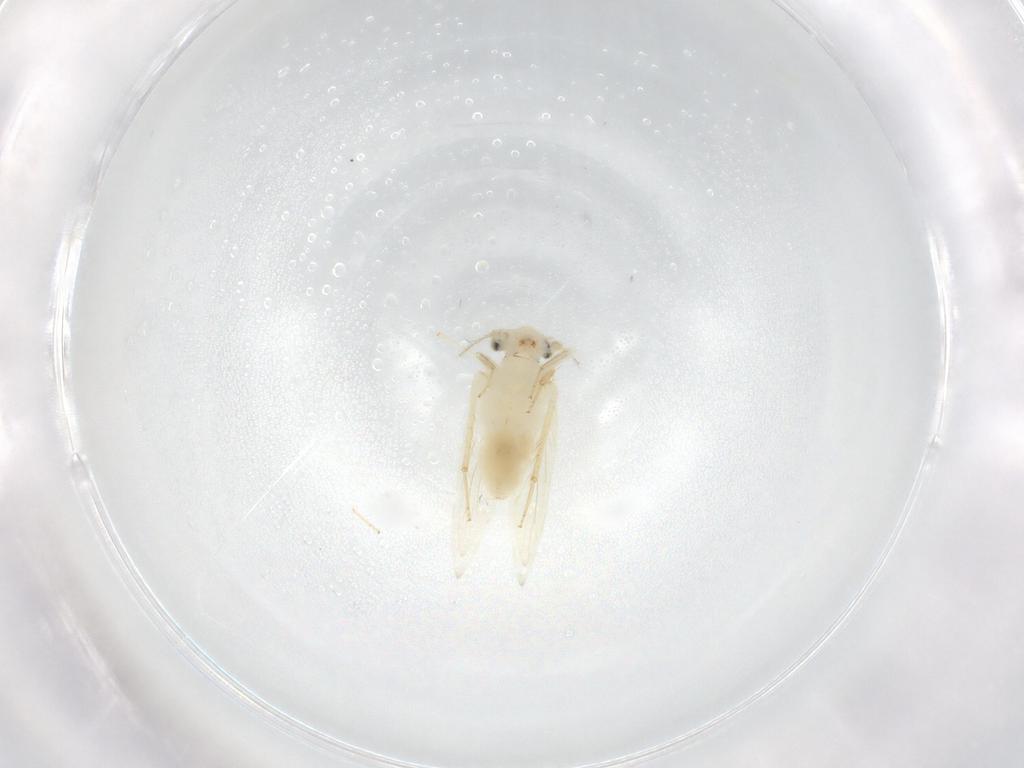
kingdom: Animalia
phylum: Arthropoda
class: Insecta
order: Psocodea
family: Lepidopsocidae
